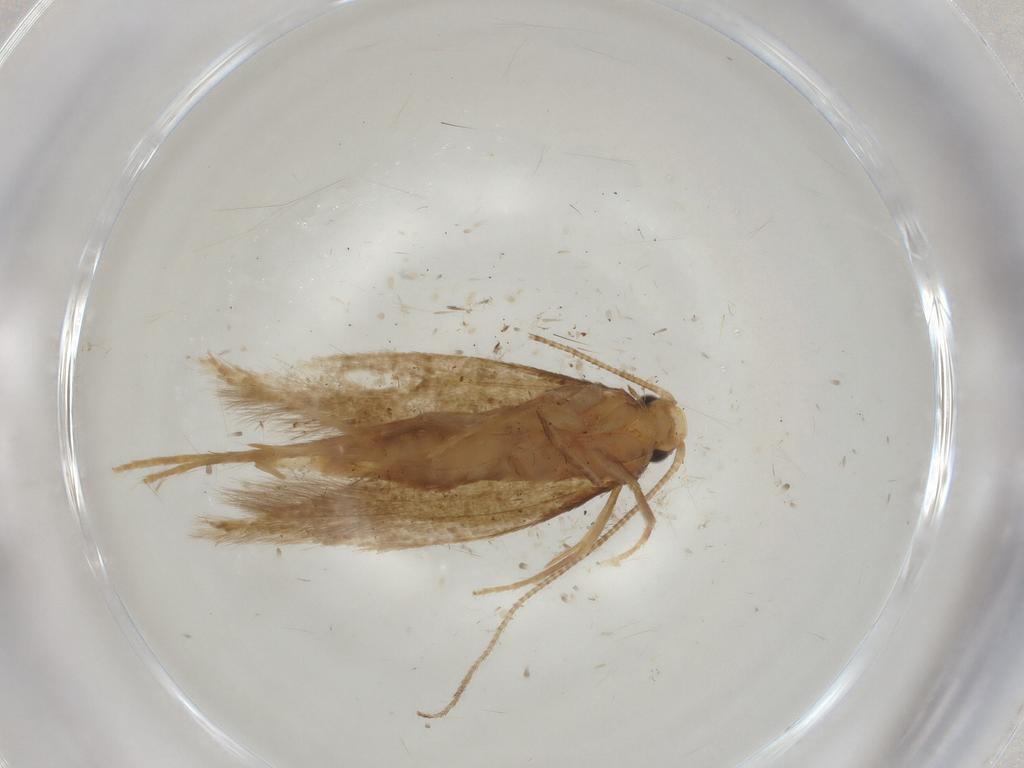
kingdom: Animalia
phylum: Arthropoda
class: Insecta
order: Lepidoptera
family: Tineidae
